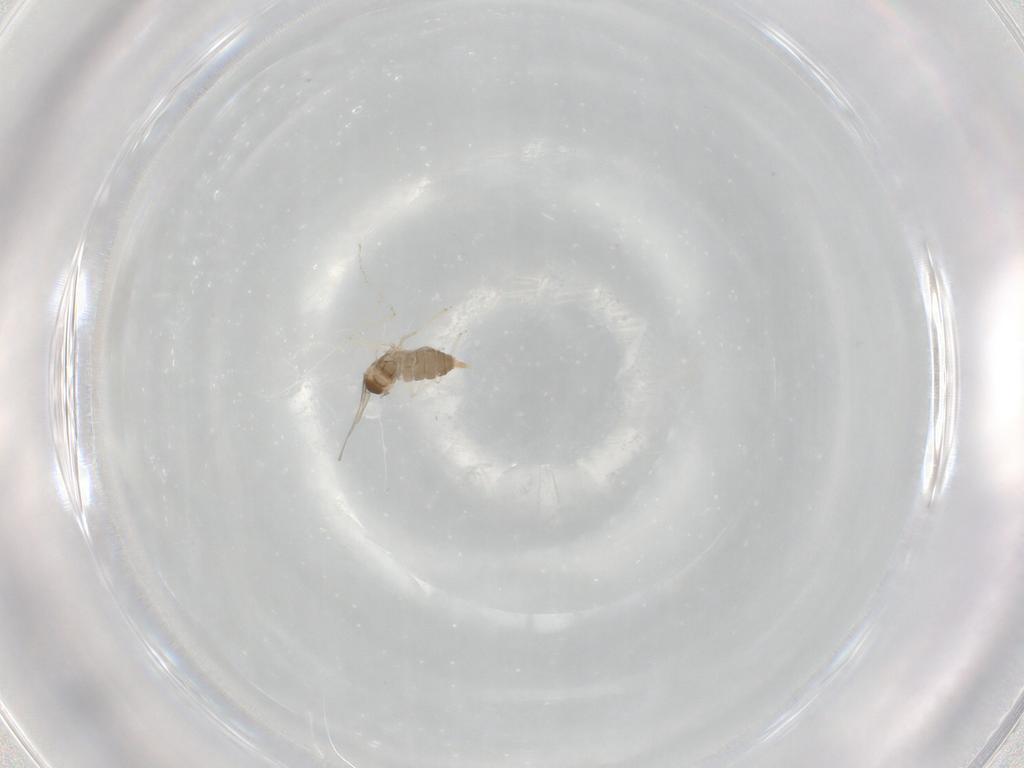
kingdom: Animalia
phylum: Arthropoda
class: Insecta
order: Diptera
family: Cecidomyiidae
